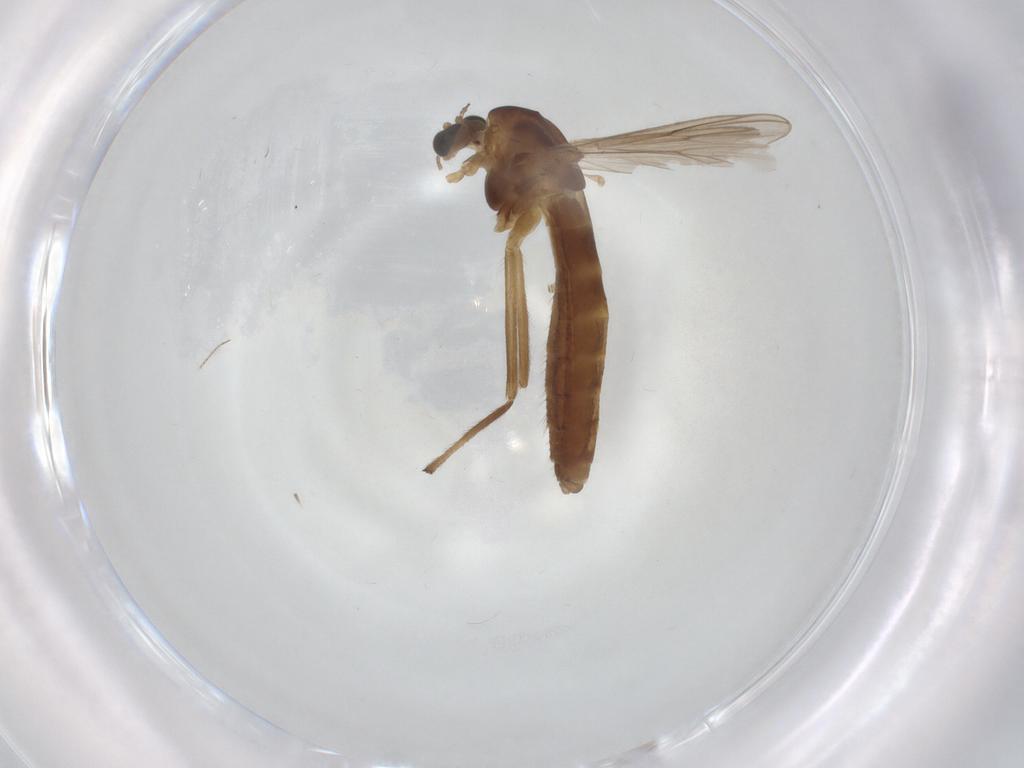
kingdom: Animalia
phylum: Arthropoda
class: Insecta
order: Diptera
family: Chironomidae
